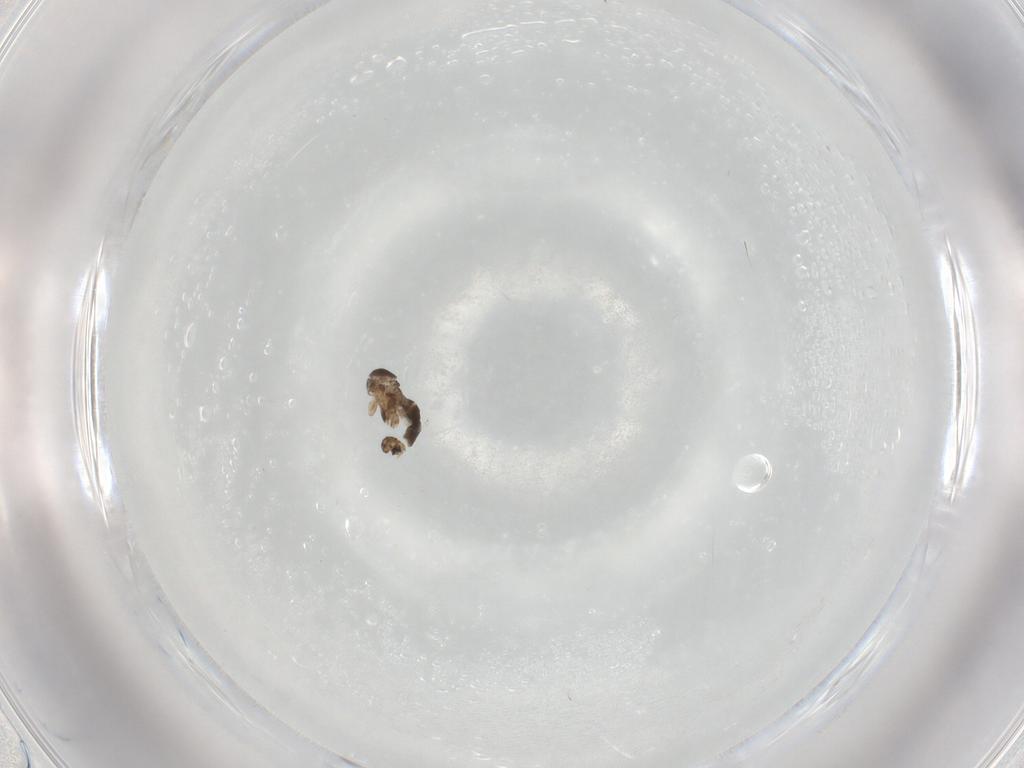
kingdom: Animalia
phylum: Arthropoda
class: Insecta
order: Diptera
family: Chironomidae
